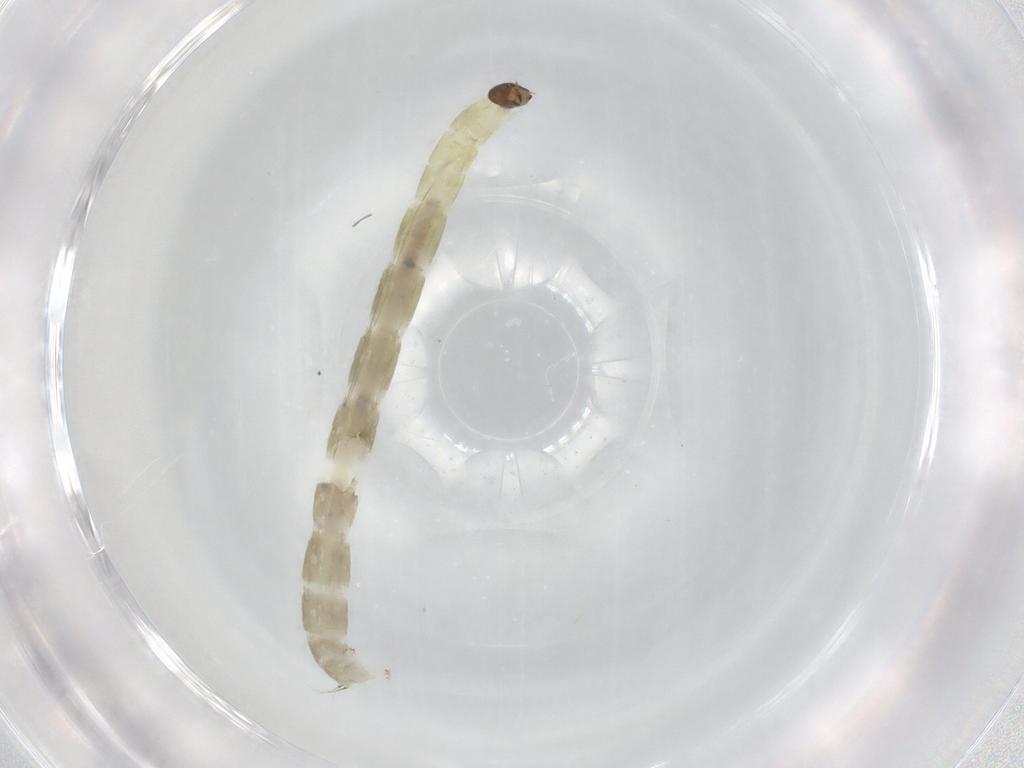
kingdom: Animalia
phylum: Arthropoda
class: Insecta
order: Diptera
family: Chironomidae
